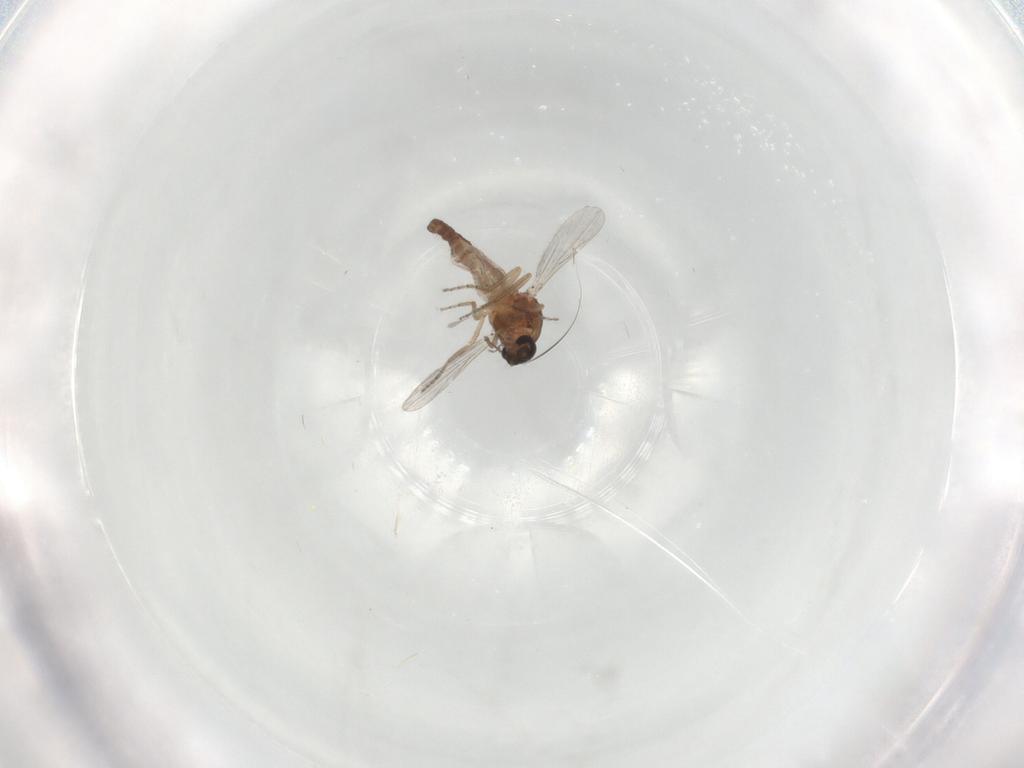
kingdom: Animalia
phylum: Arthropoda
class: Insecta
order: Diptera
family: Ceratopogonidae
